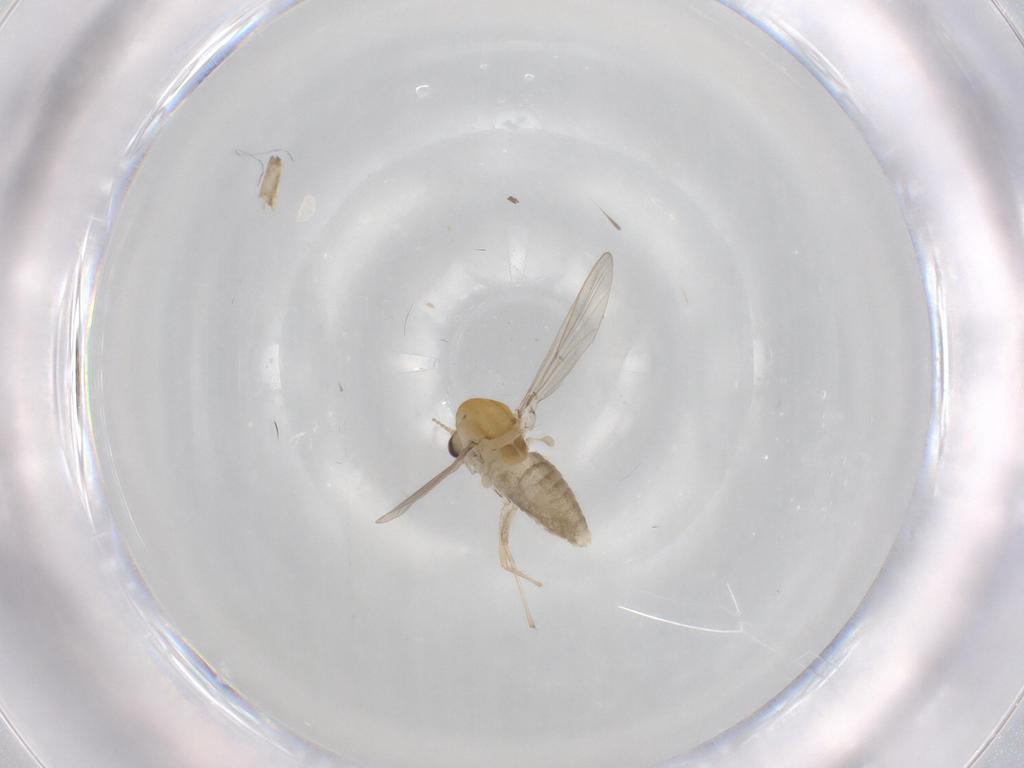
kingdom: Animalia
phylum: Arthropoda
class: Insecta
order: Diptera
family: Chironomidae
